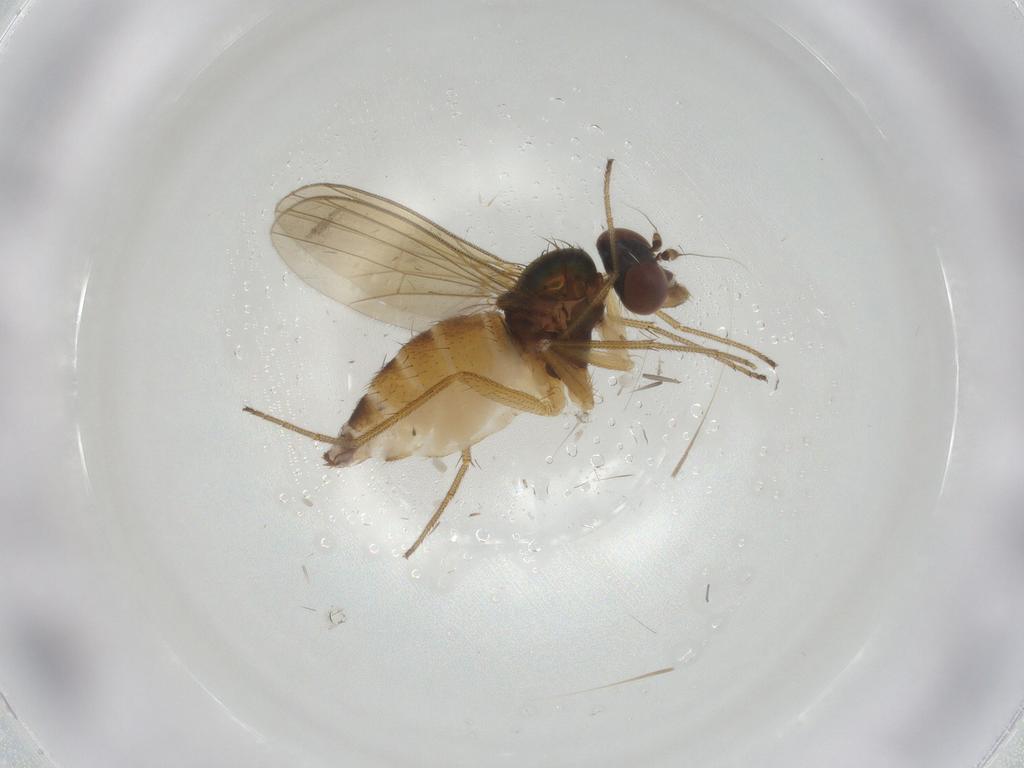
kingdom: Animalia
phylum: Arthropoda
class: Insecta
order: Diptera
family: Dolichopodidae
